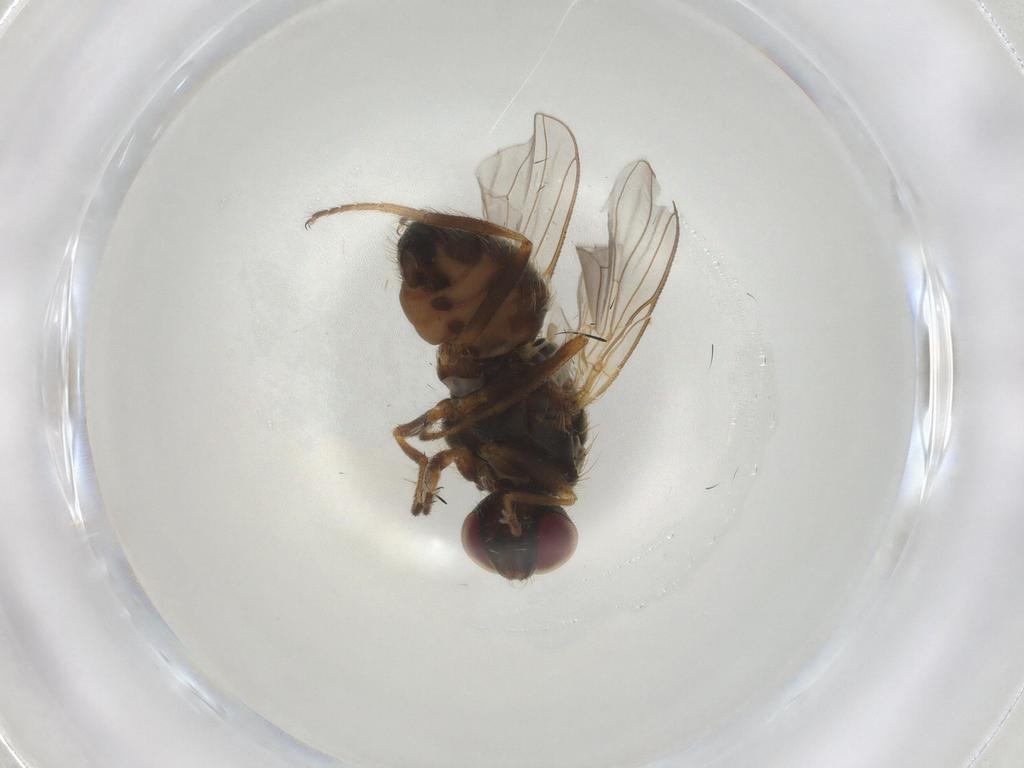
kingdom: Animalia
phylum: Arthropoda
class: Insecta
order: Diptera
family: Muscidae
